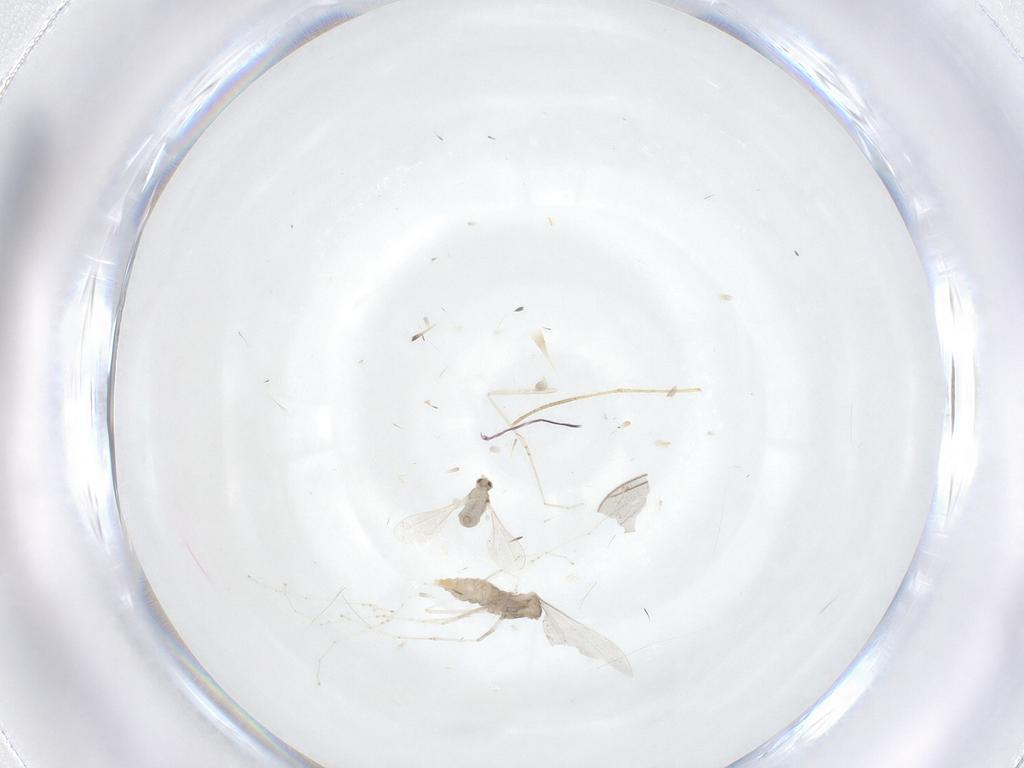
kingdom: Animalia
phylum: Arthropoda
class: Insecta
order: Diptera
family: Cecidomyiidae
